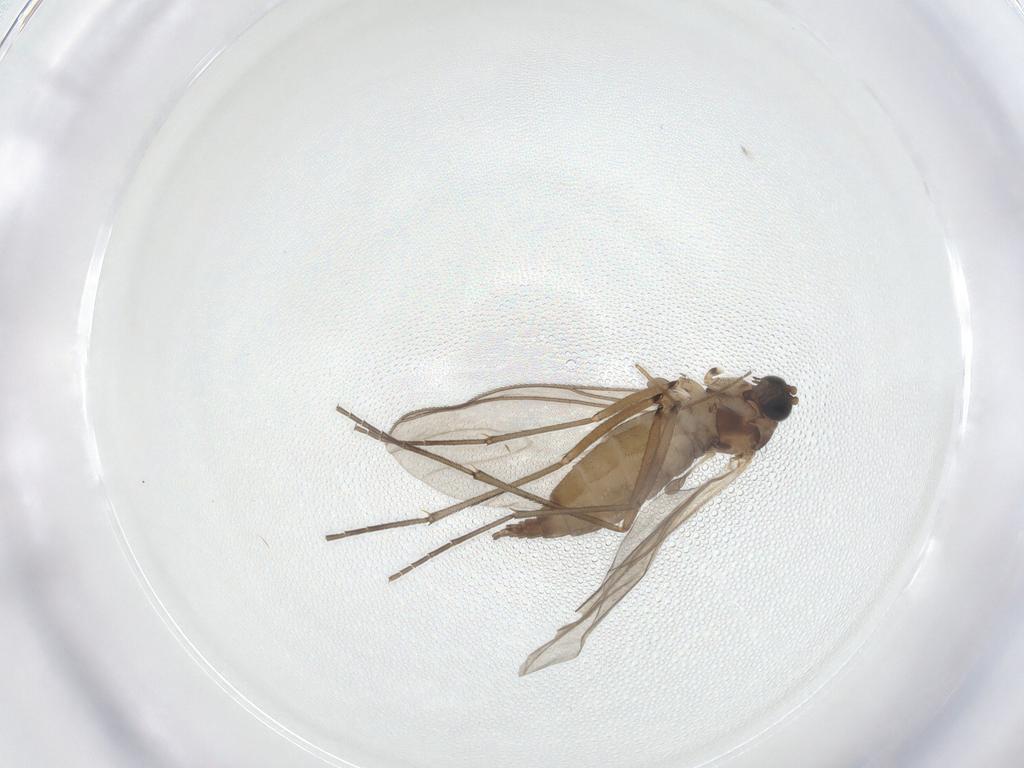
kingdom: Animalia
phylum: Arthropoda
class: Insecta
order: Diptera
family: Sciaridae
